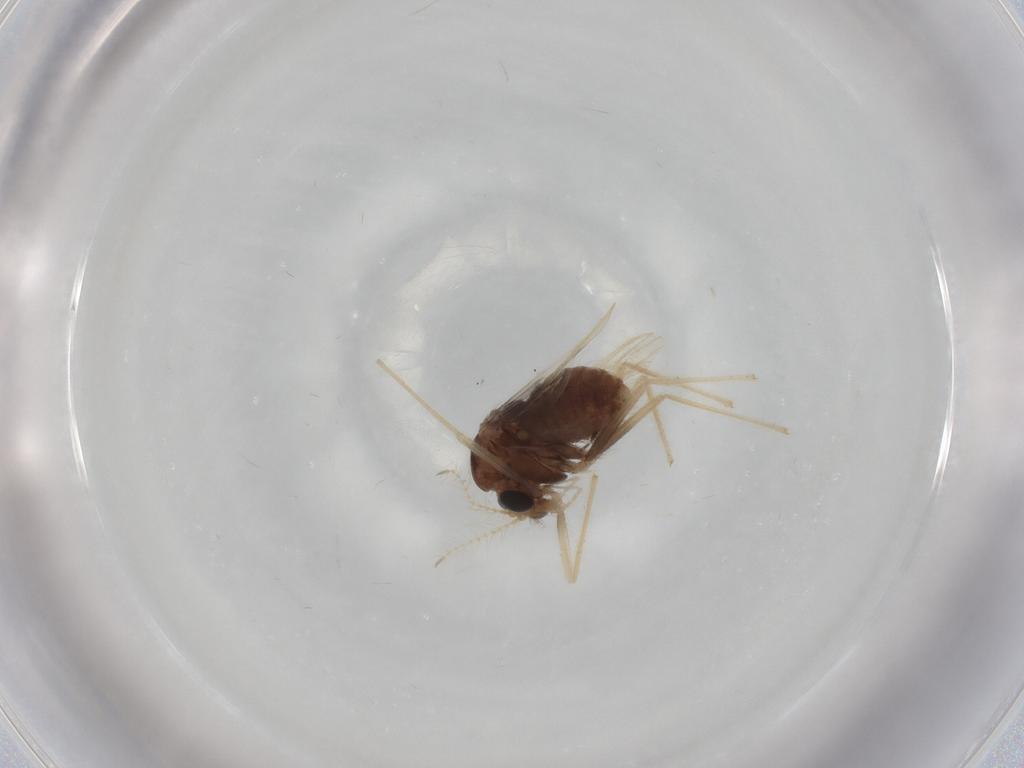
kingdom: Animalia
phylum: Arthropoda
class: Insecta
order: Diptera
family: Chironomidae
